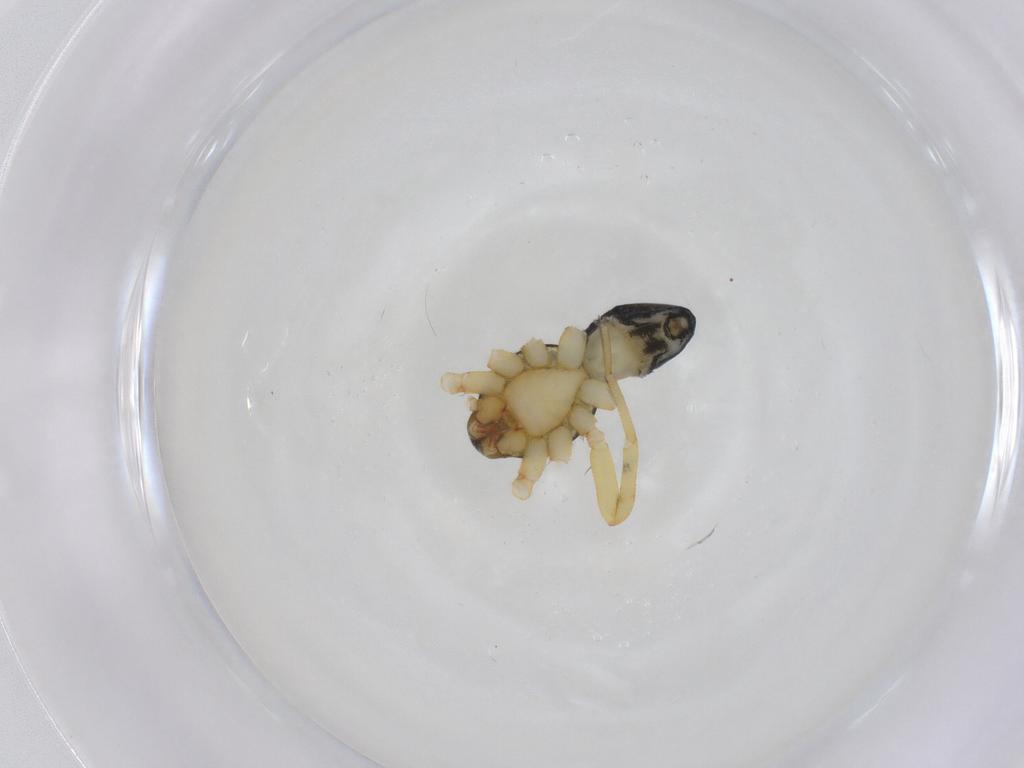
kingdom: Animalia
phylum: Arthropoda
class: Arachnida
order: Araneae
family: Phrurolithidae
